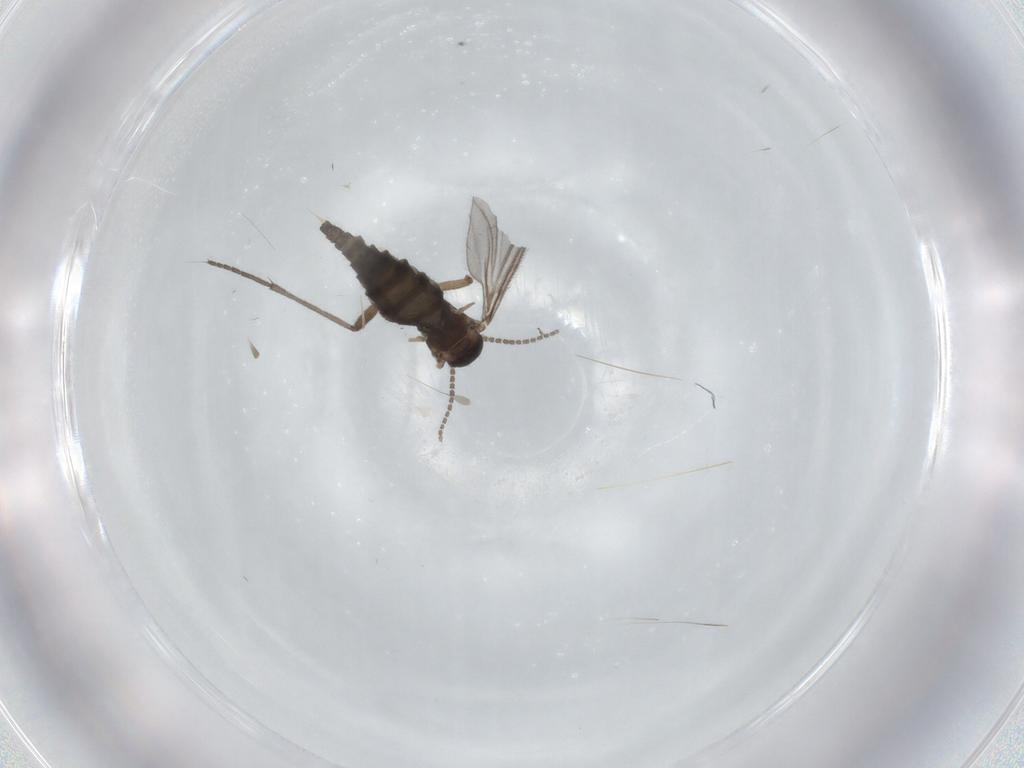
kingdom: Animalia
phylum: Arthropoda
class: Insecta
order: Diptera
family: Sciaridae
